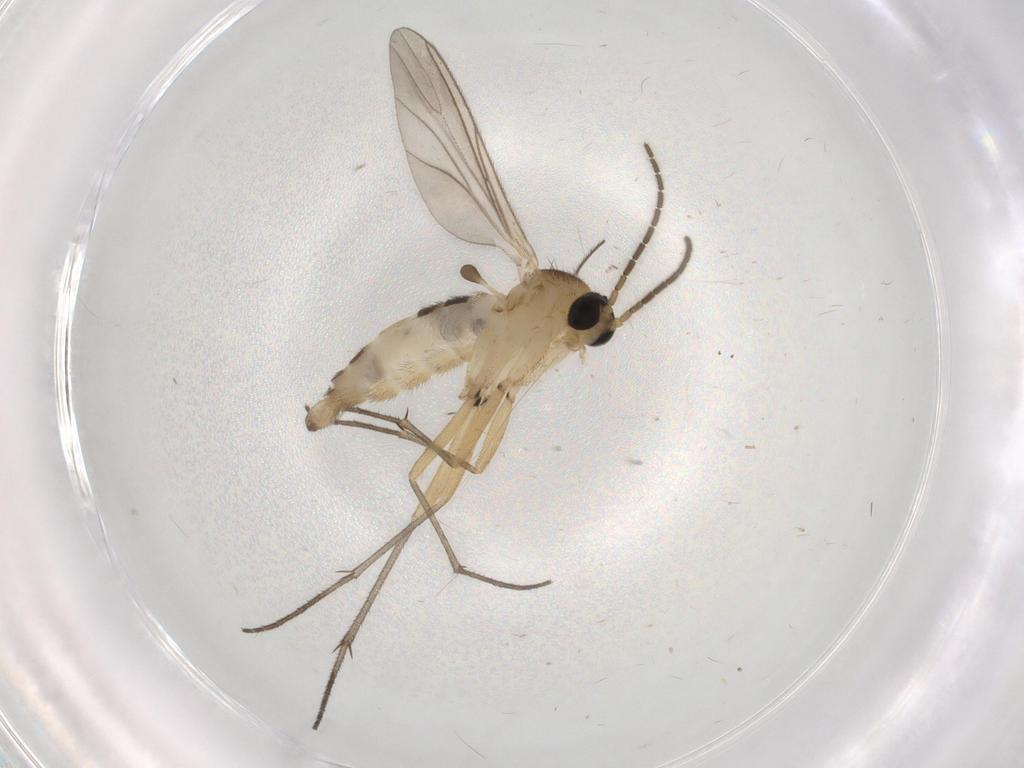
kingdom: Animalia
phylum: Arthropoda
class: Insecta
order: Diptera
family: Sciaridae
